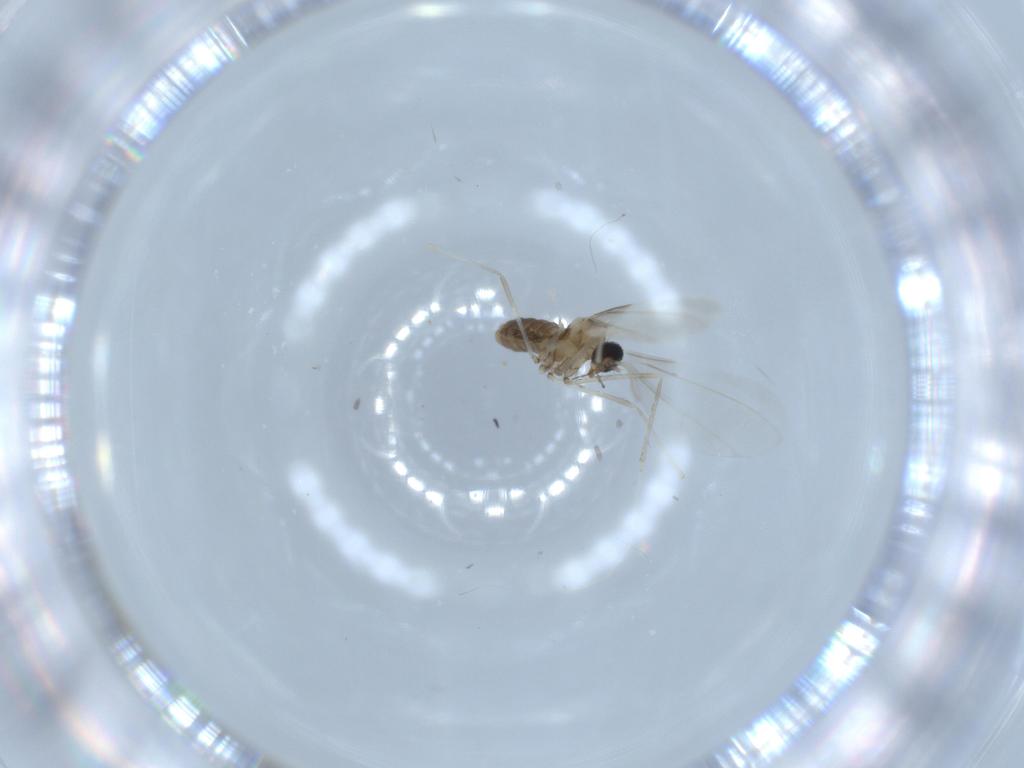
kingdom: Animalia
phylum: Arthropoda
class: Insecta
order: Diptera
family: Cecidomyiidae
